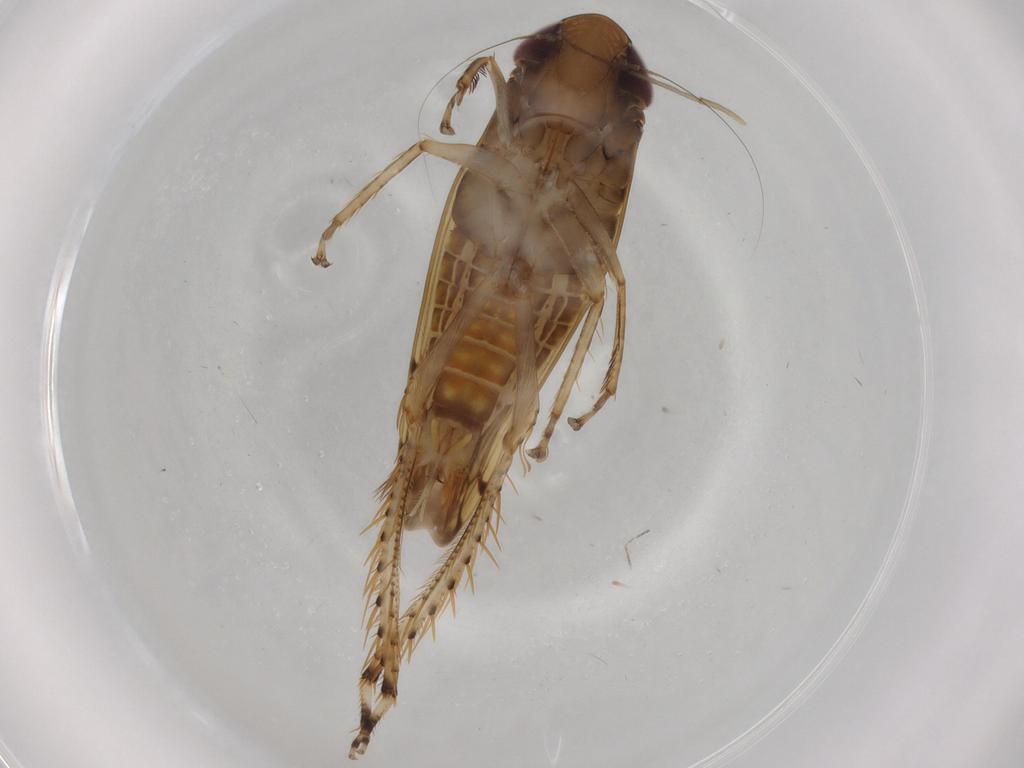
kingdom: Animalia
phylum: Arthropoda
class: Insecta
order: Hemiptera
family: Cicadellidae
